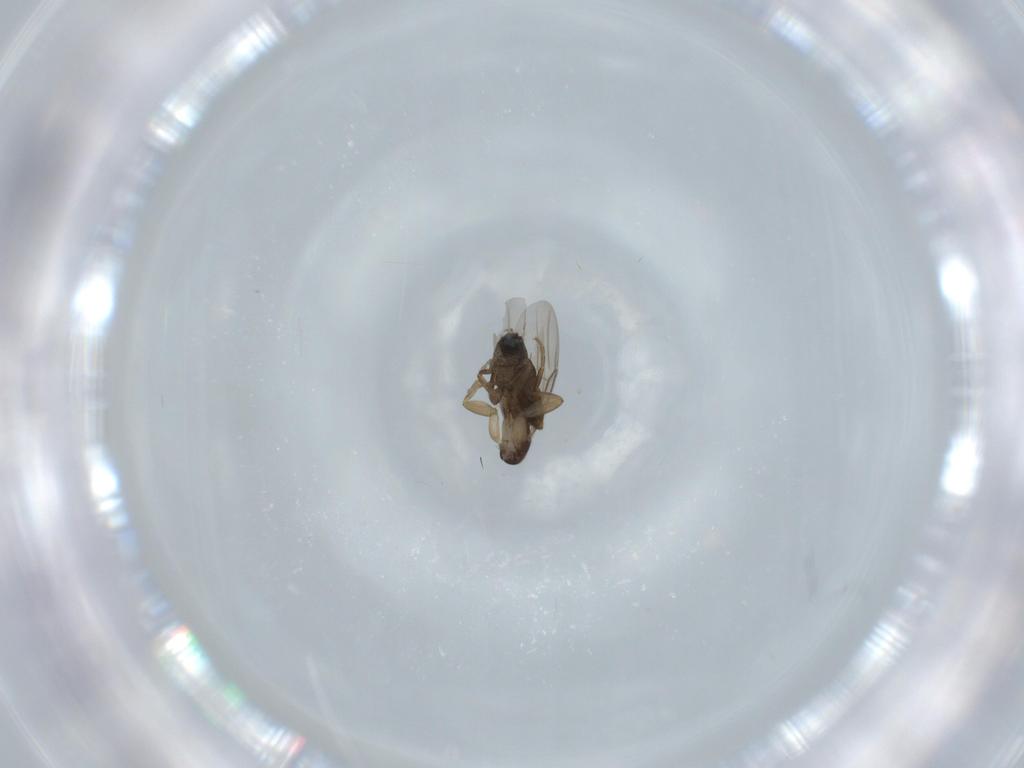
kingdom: Animalia
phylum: Arthropoda
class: Insecta
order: Diptera
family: Phoridae
